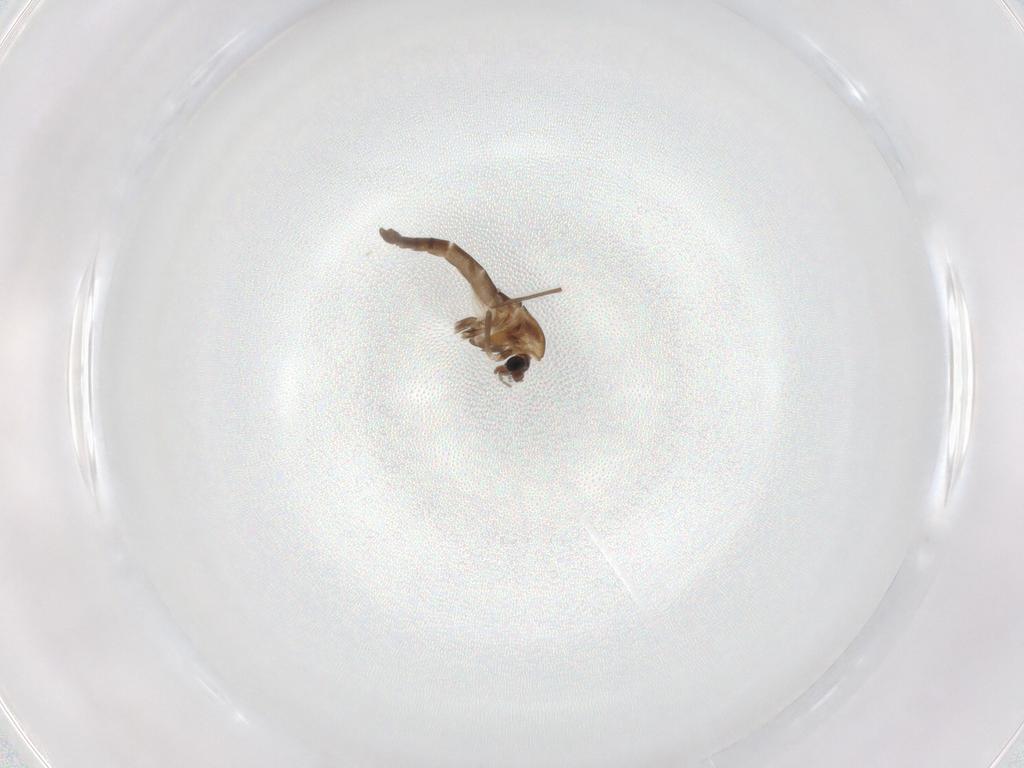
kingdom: Animalia
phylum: Arthropoda
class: Insecta
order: Diptera
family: Chironomidae
